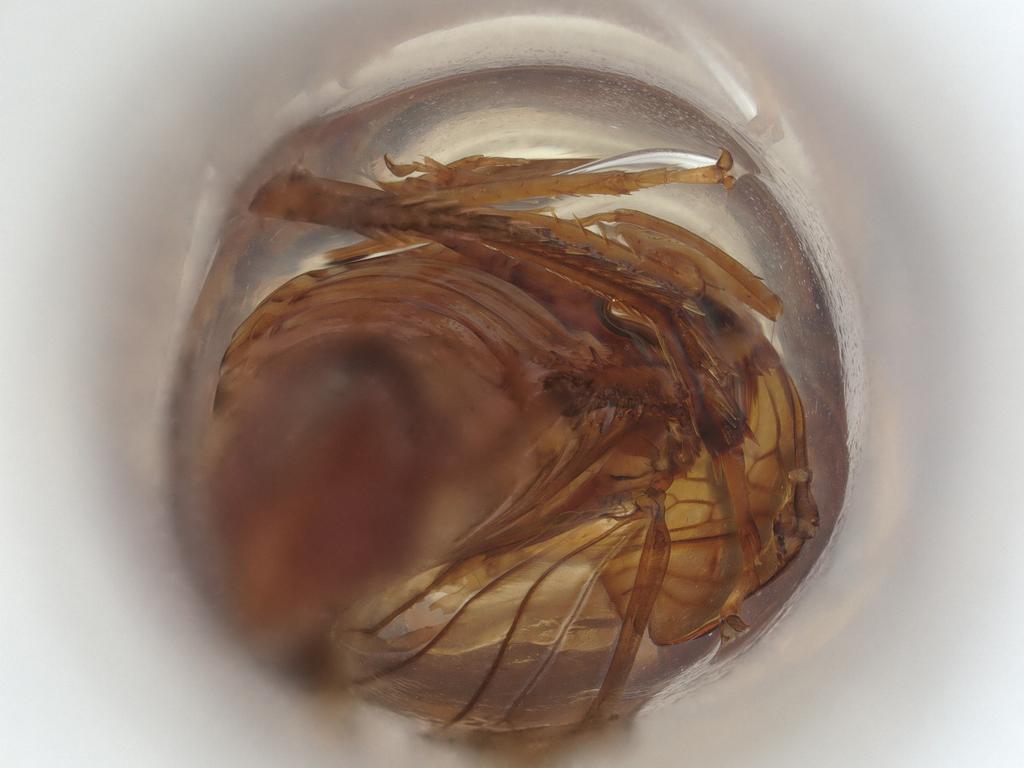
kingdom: Animalia
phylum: Arthropoda
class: Insecta
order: Hemiptera
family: Cicadellidae
